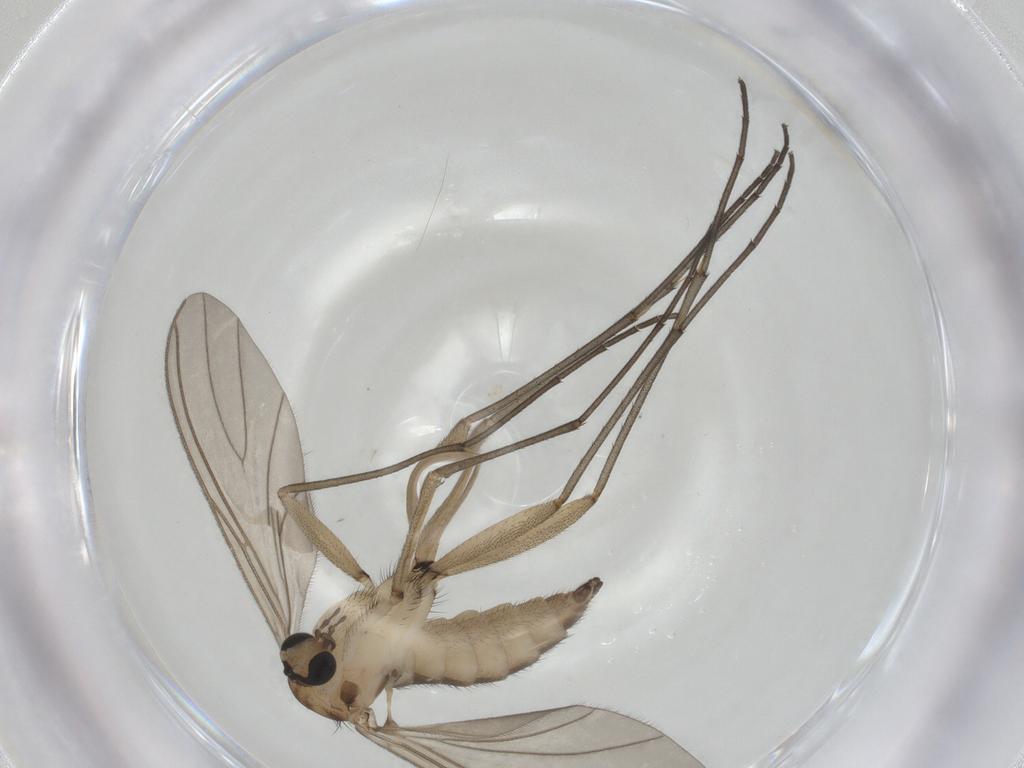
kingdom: Animalia
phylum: Arthropoda
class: Insecta
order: Diptera
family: Sciaridae
